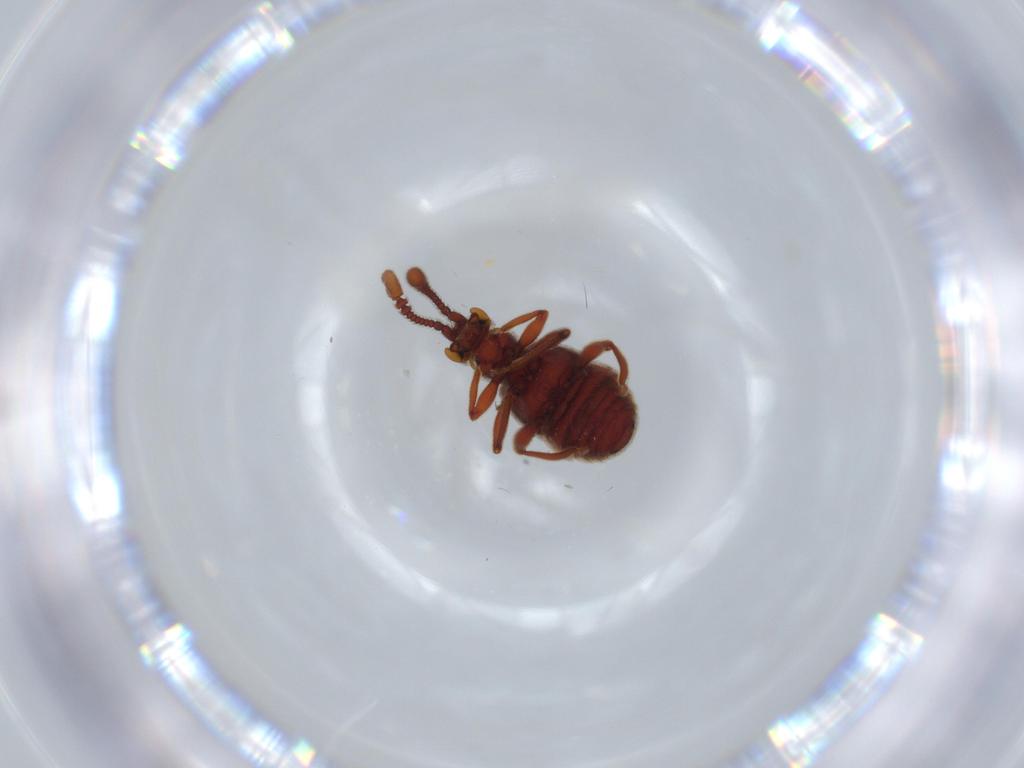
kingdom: Animalia
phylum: Arthropoda
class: Insecta
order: Coleoptera
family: Staphylinidae
